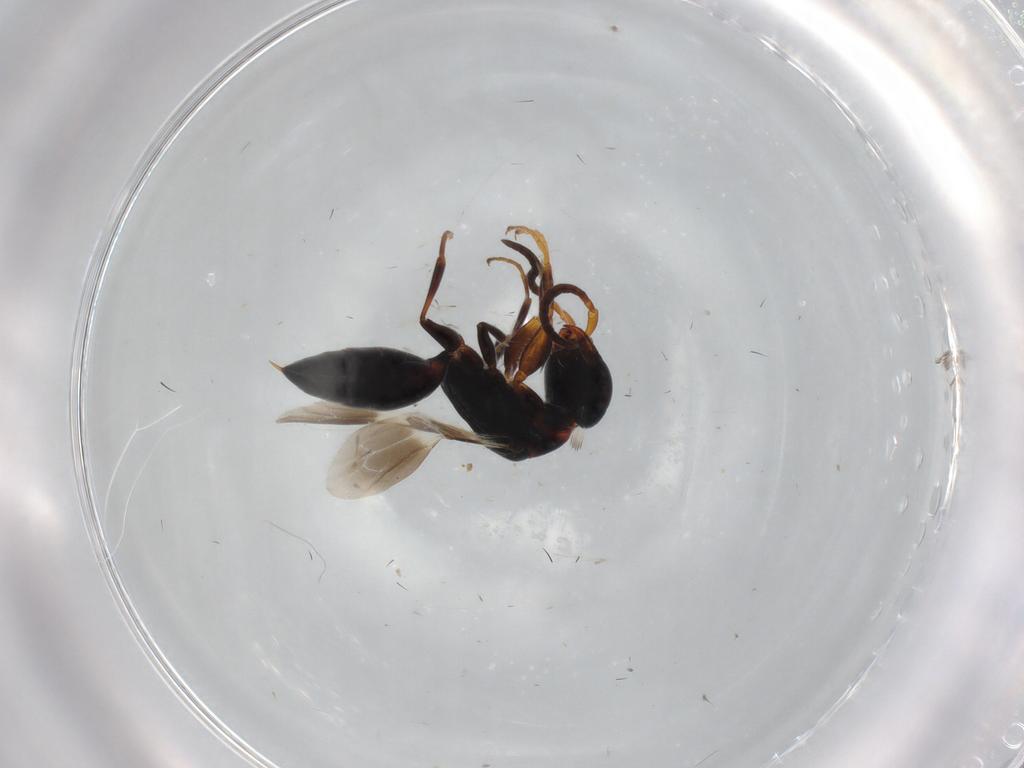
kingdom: Animalia
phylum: Arthropoda
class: Insecta
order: Hymenoptera
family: Bethylidae
